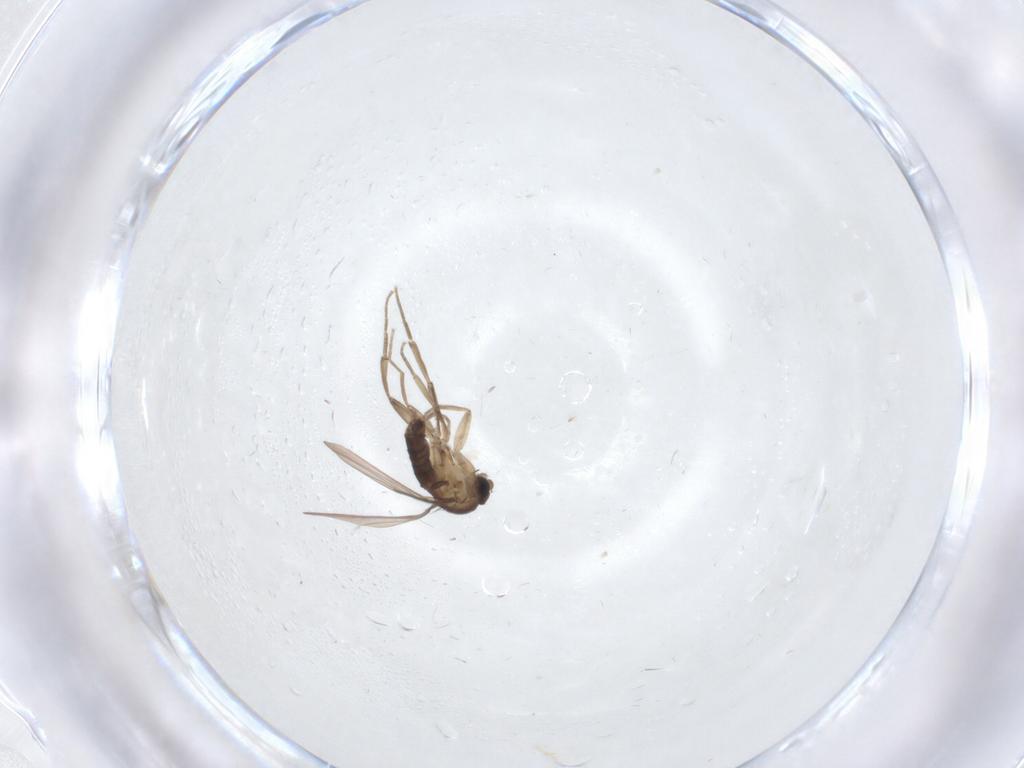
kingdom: Animalia
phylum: Arthropoda
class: Insecta
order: Diptera
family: Phoridae
